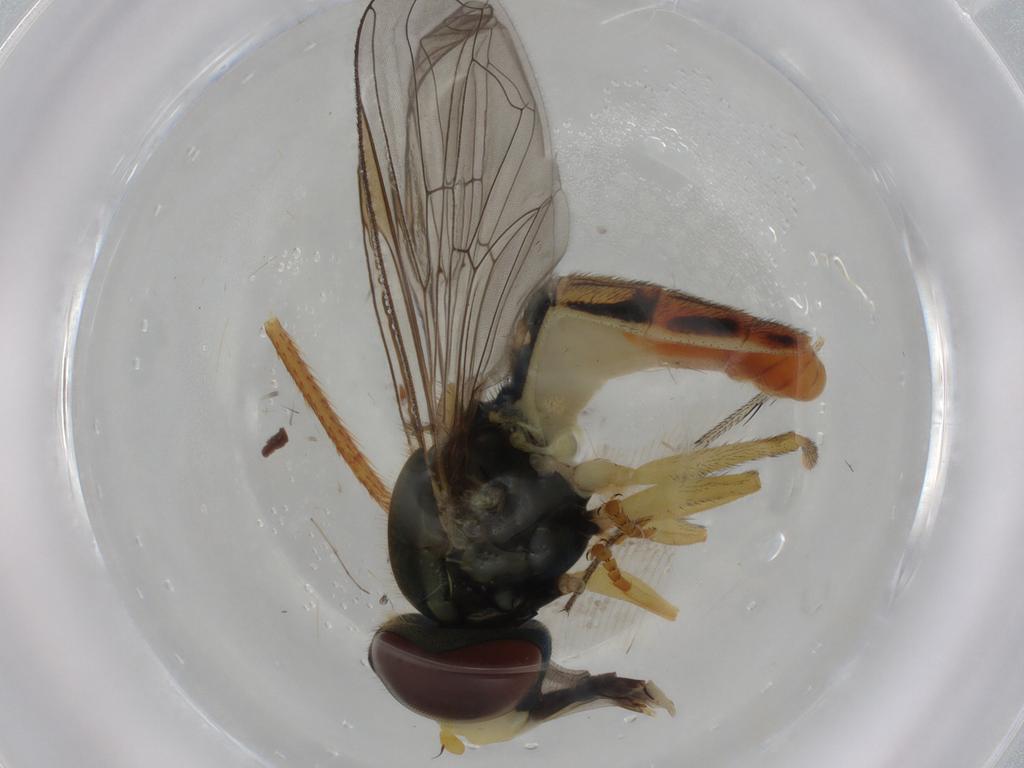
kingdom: Animalia
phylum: Arthropoda
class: Insecta
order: Diptera
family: Syrphidae
